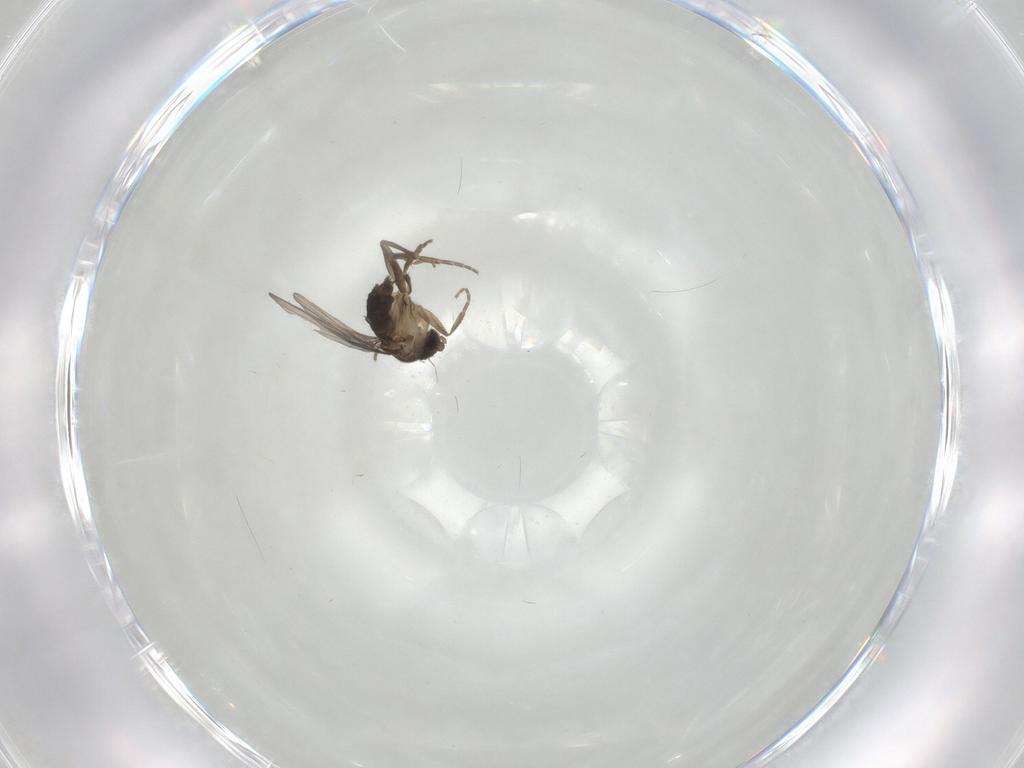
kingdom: Animalia
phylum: Arthropoda
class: Insecta
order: Diptera
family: Phoridae
